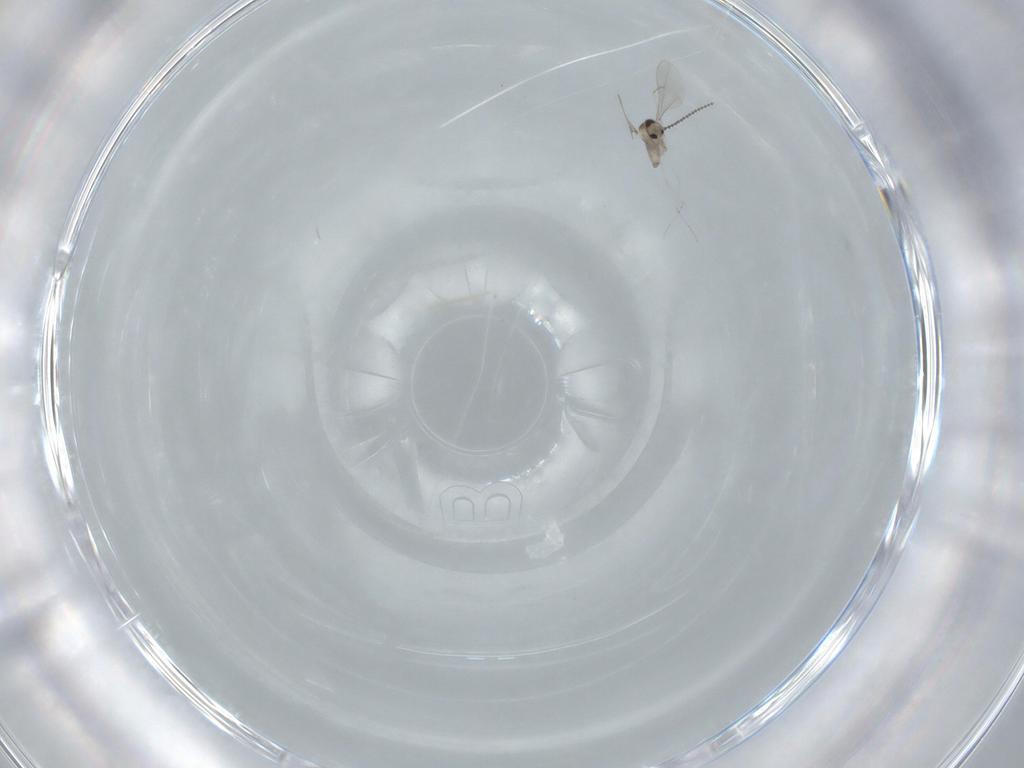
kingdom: Animalia
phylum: Arthropoda
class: Insecta
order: Diptera
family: Cecidomyiidae
